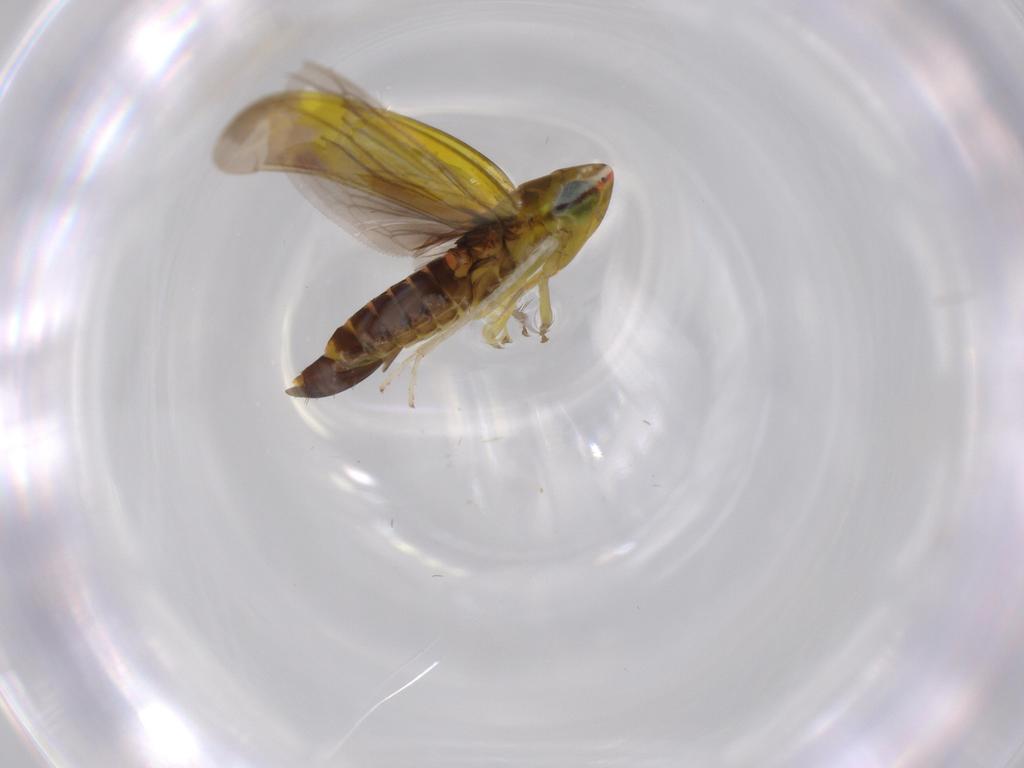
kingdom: Animalia
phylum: Arthropoda
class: Insecta
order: Hemiptera
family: Cicadellidae
